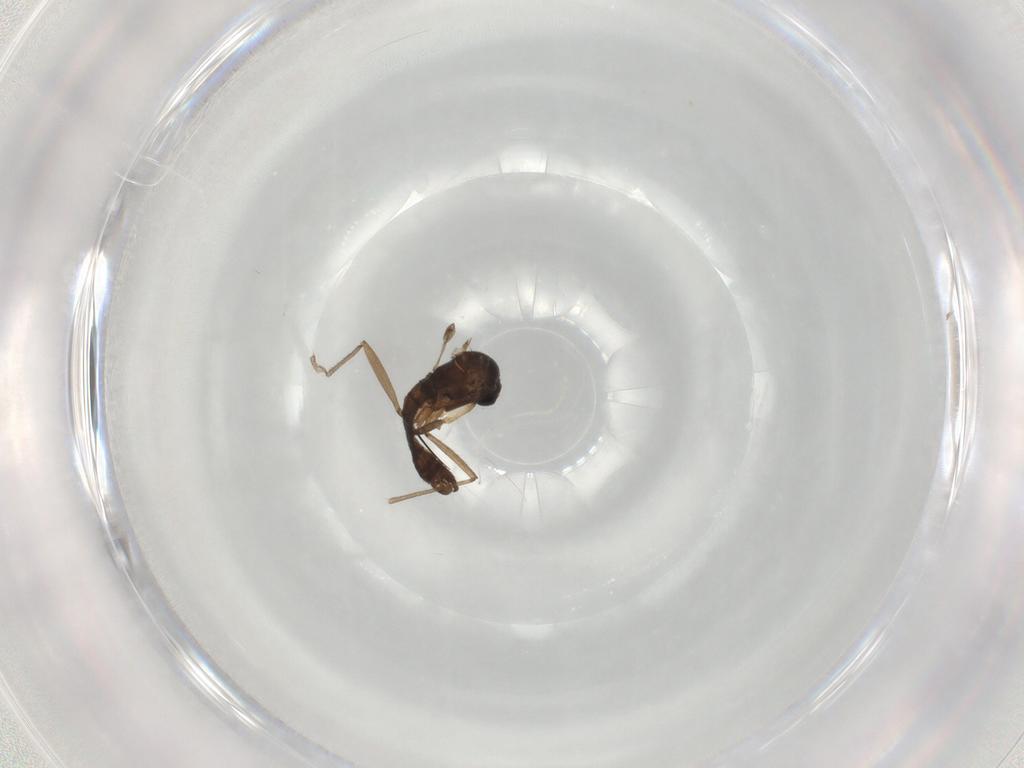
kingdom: Animalia
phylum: Arthropoda
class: Insecta
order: Diptera
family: Sciaridae
